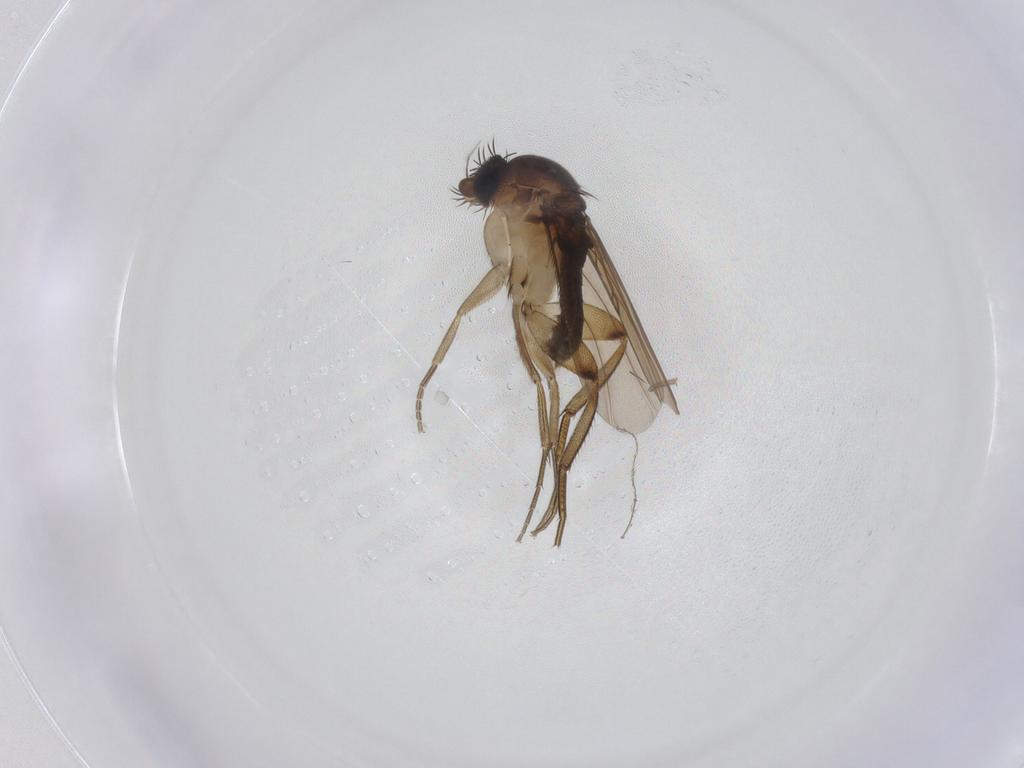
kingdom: Animalia
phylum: Arthropoda
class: Insecta
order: Diptera
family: Phoridae
